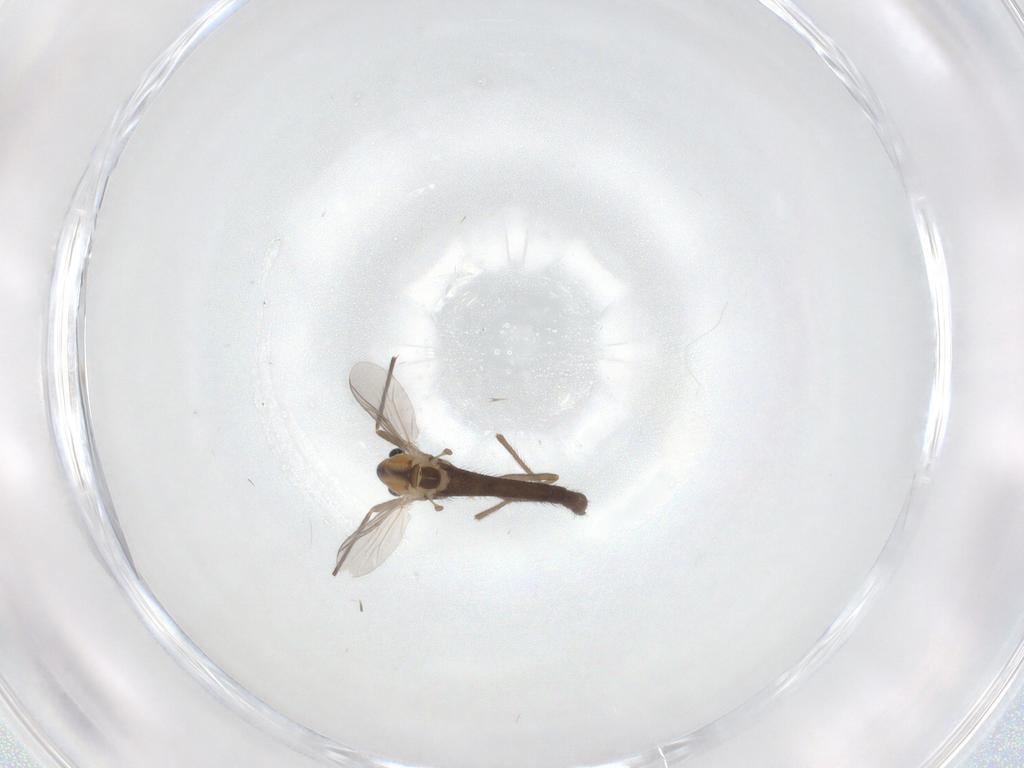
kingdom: Animalia
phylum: Arthropoda
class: Insecta
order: Diptera
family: Chironomidae
